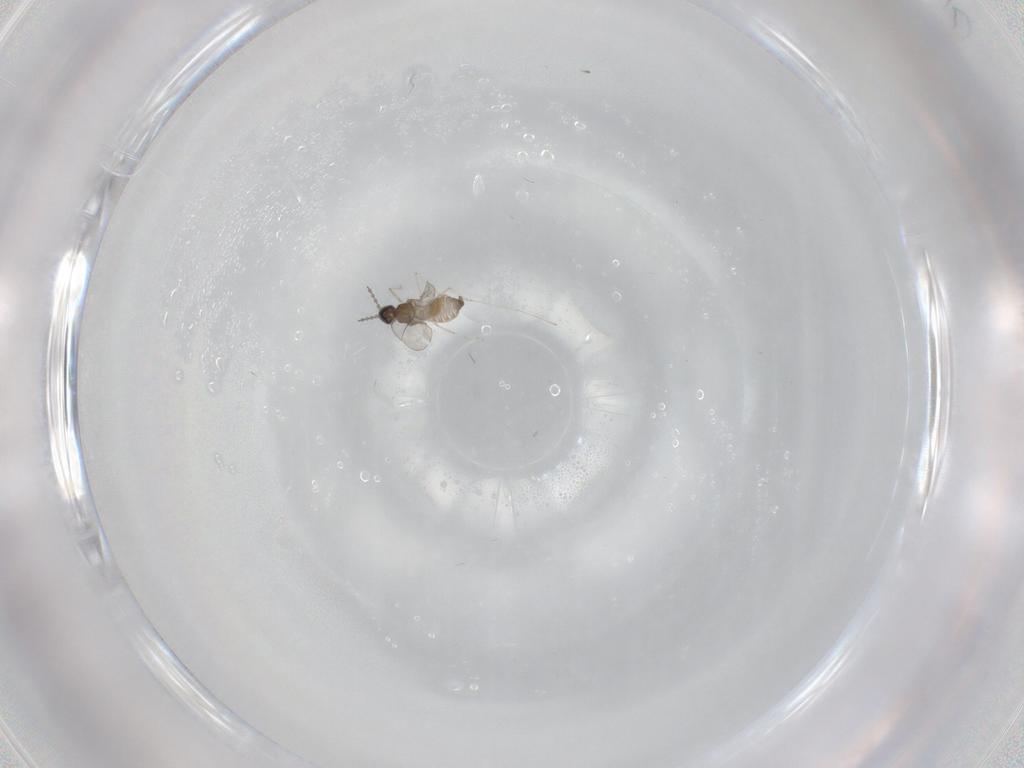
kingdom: Animalia
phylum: Arthropoda
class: Insecta
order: Diptera
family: Cecidomyiidae
